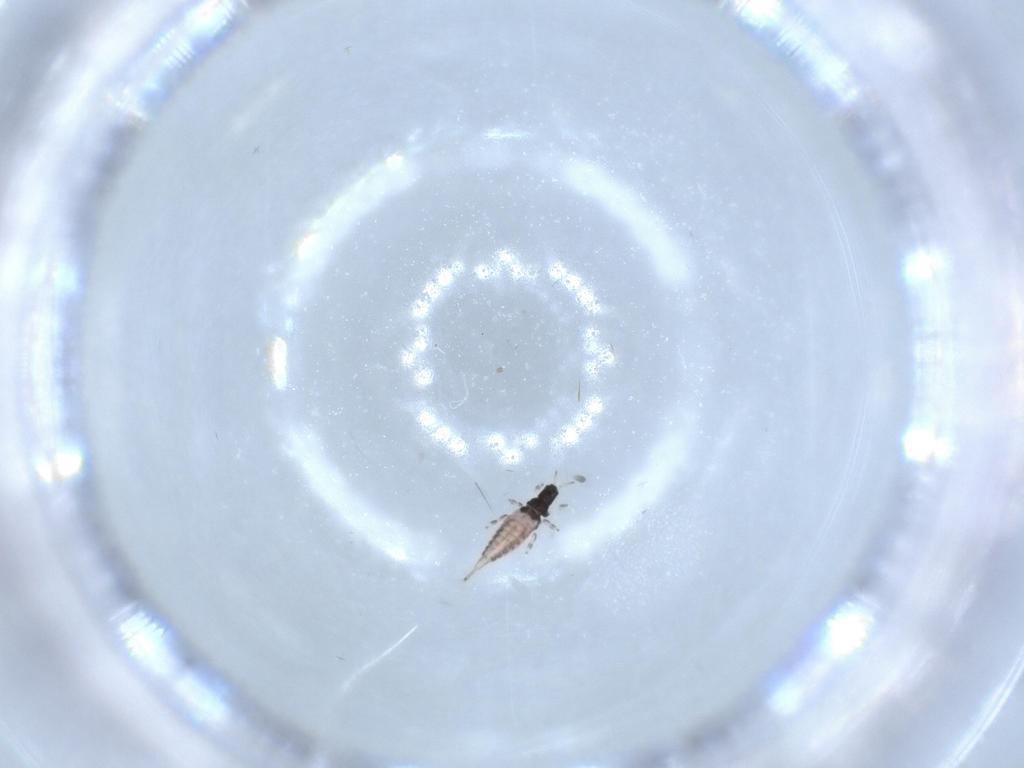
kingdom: Animalia
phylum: Arthropoda
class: Insecta
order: Thysanoptera
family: Phlaeothripidae
